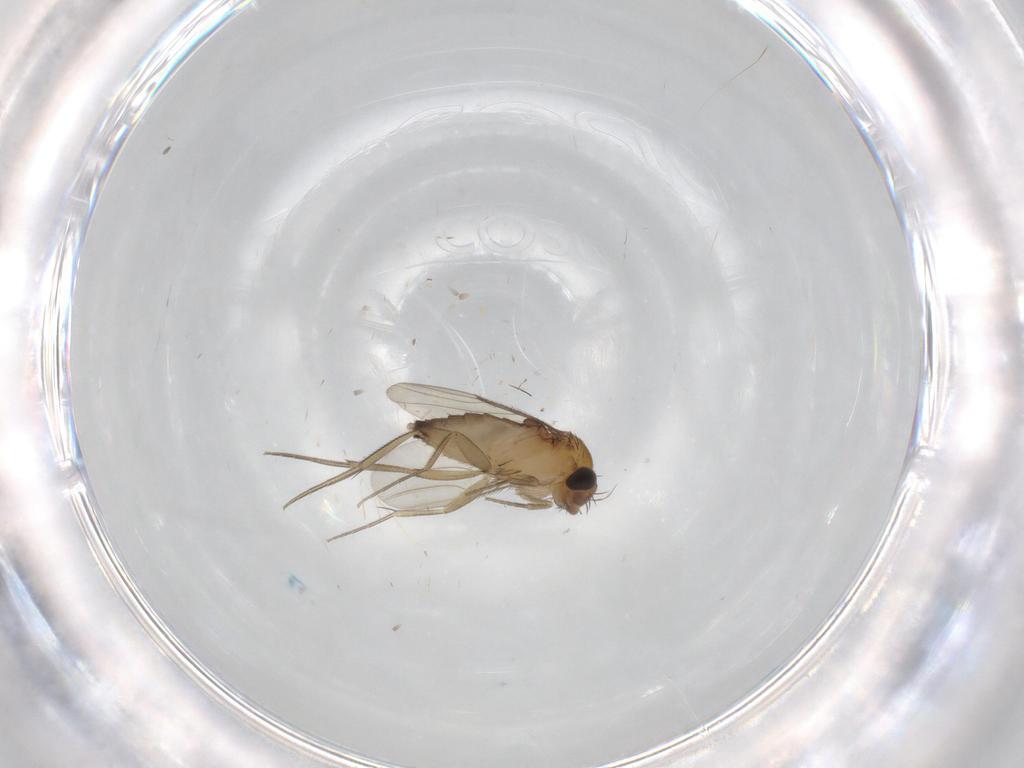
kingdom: Animalia
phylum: Arthropoda
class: Insecta
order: Diptera
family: Phoridae
